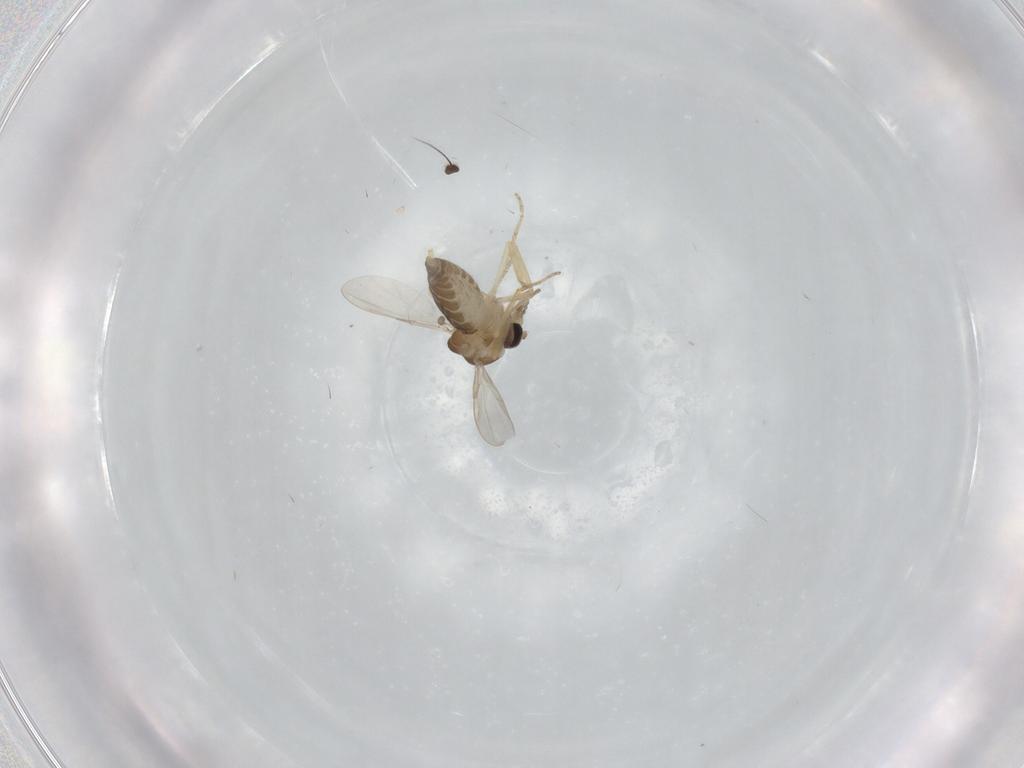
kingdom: Animalia
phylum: Arthropoda
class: Insecta
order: Diptera
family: Ceratopogonidae
